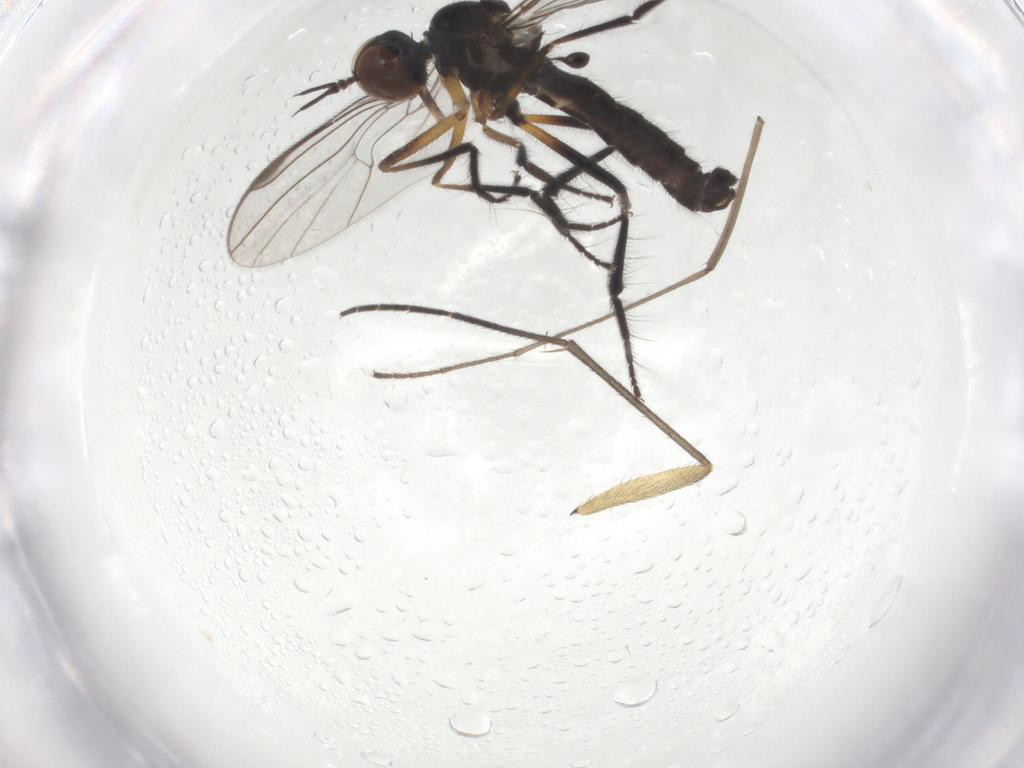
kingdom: Animalia
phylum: Arthropoda
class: Insecta
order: Diptera
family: Empididae
